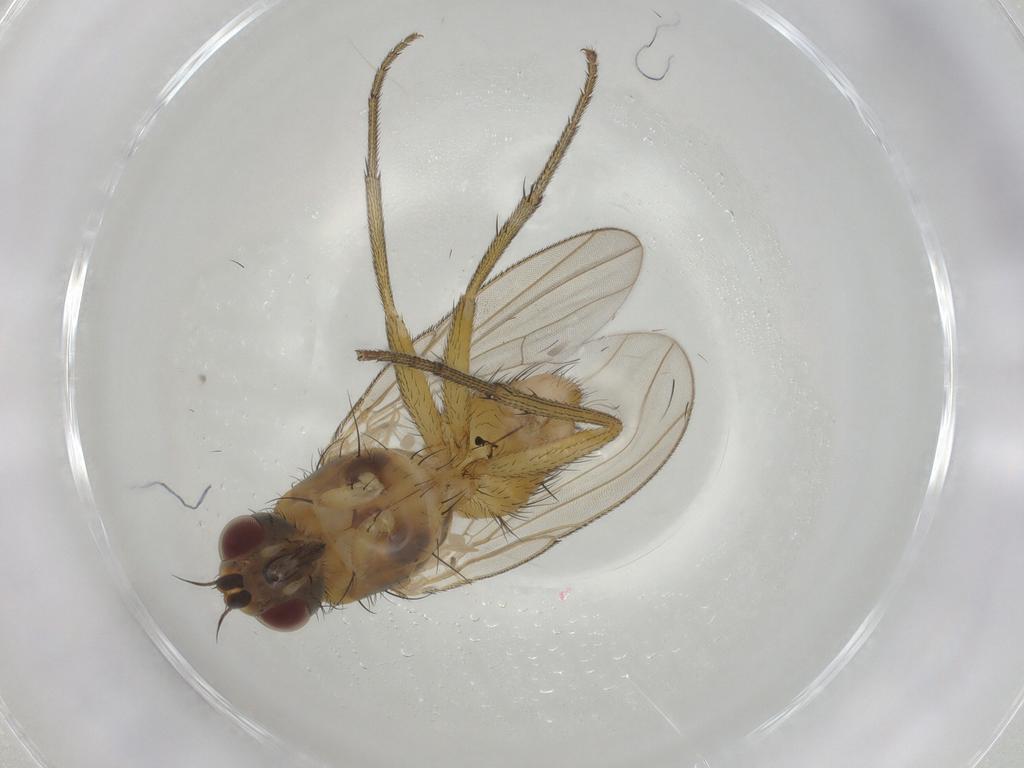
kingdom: Animalia
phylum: Arthropoda
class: Insecta
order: Diptera
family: Muscidae
